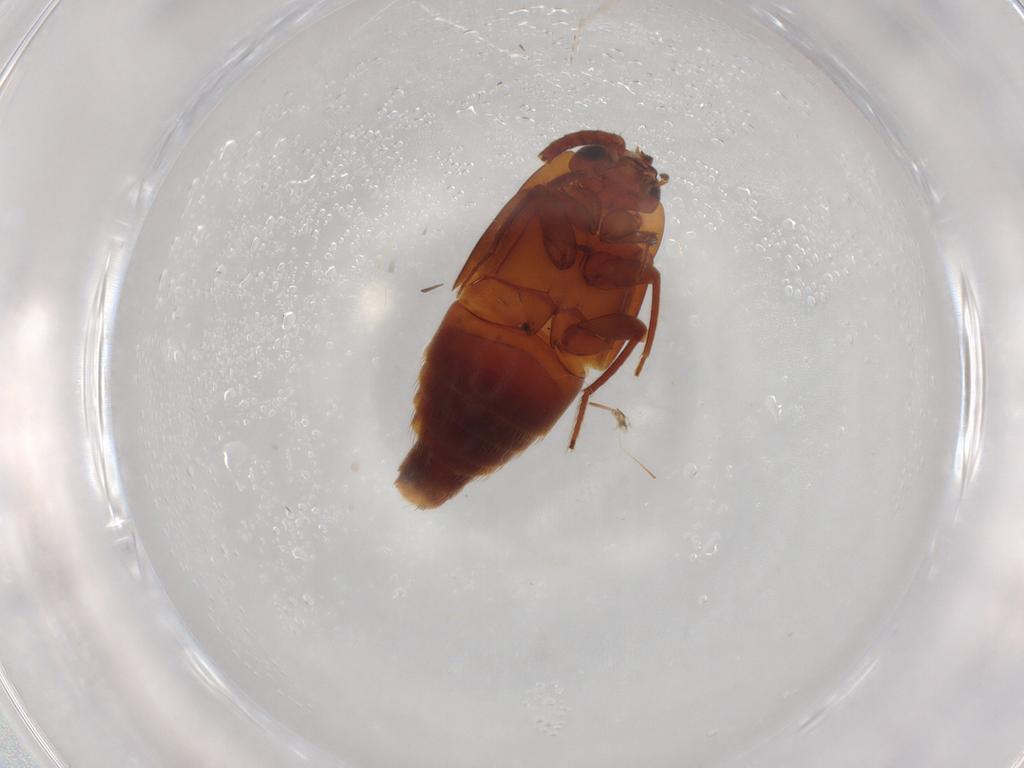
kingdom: Animalia
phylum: Arthropoda
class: Insecta
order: Coleoptera
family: Staphylinidae
